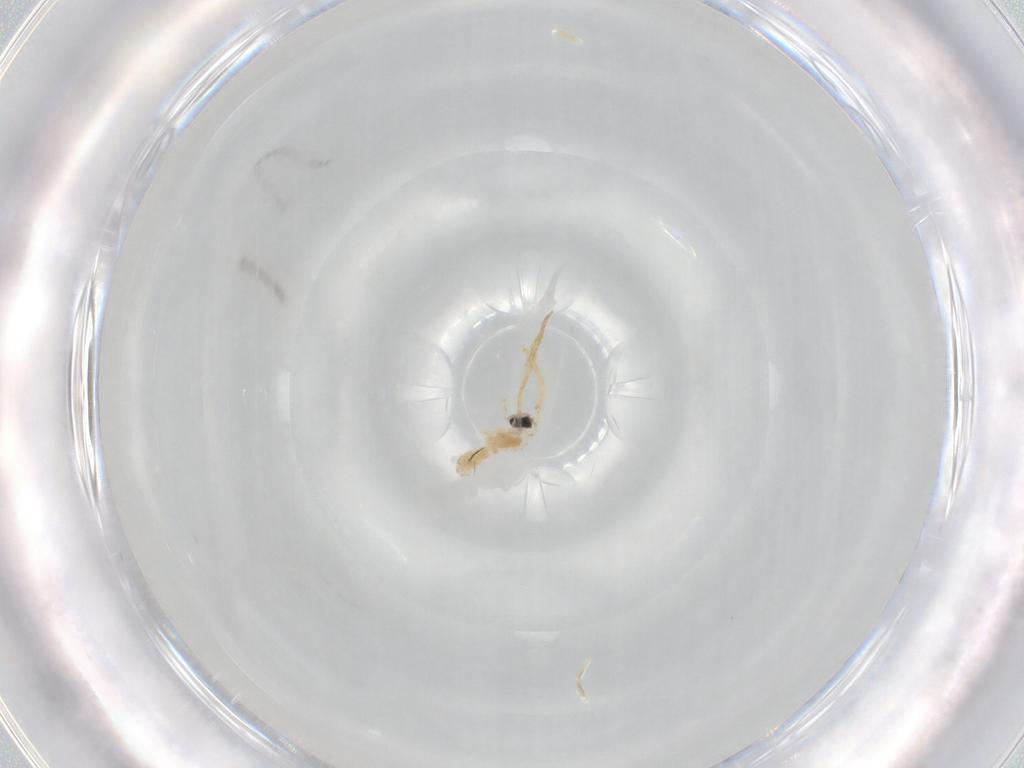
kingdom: Animalia
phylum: Arthropoda
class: Insecta
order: Diptera
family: Cecidomyiidae
